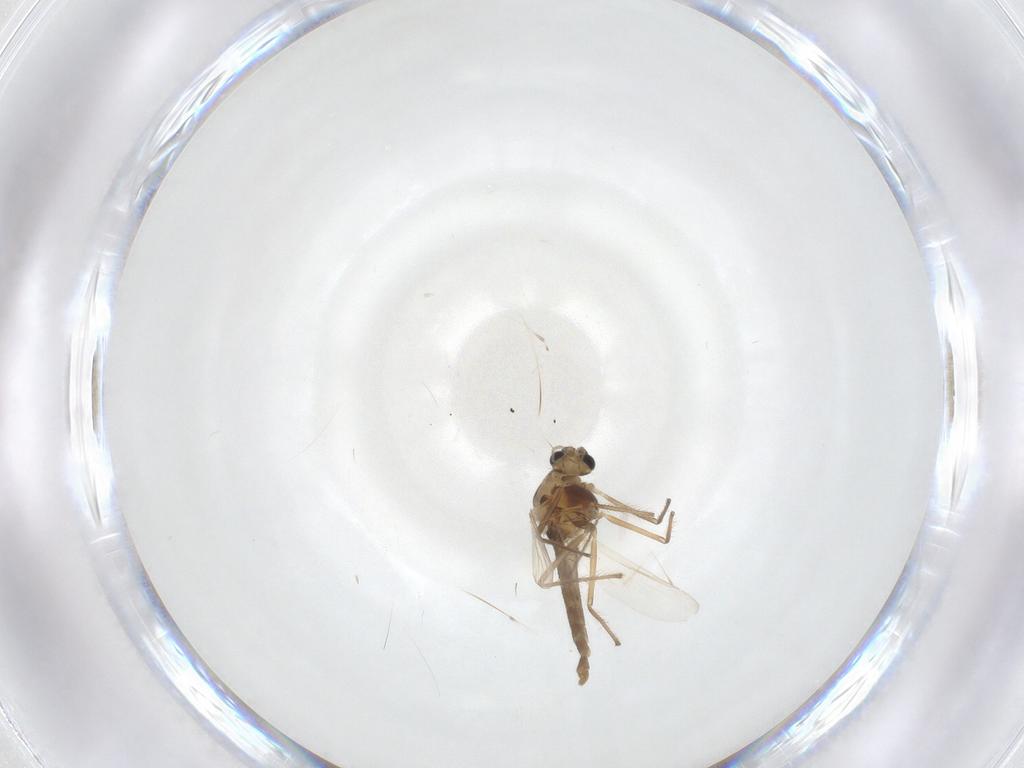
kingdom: Animalia
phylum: Arthropoda
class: Insecta
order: Diptera
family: Chironomidae
